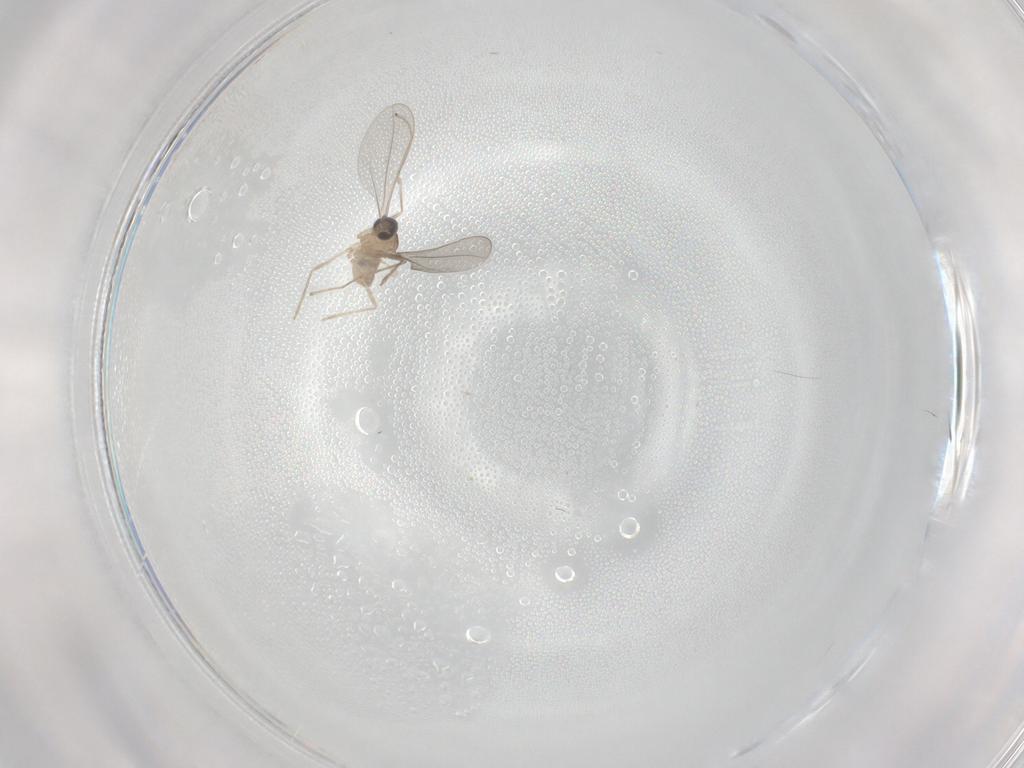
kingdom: Animalia
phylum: Arthropoda
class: Insecta
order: Diptera
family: Cecidomyiidae
